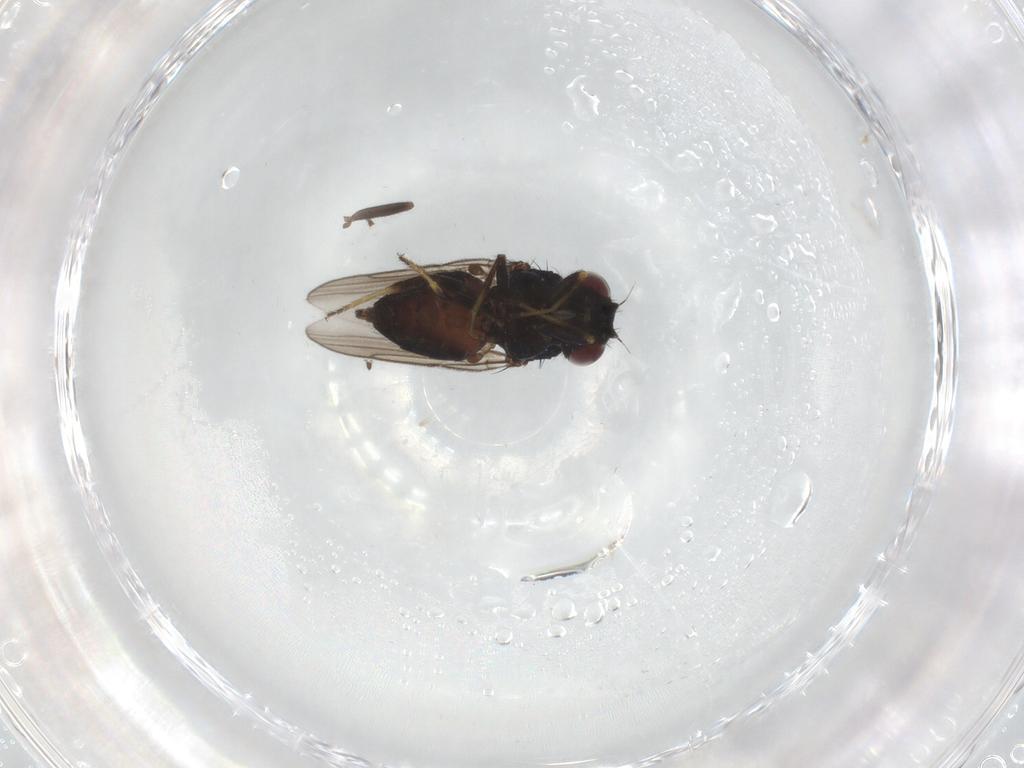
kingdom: Animalia
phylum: Arthropoda
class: Insecta
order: Diptera
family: Chloropidae
